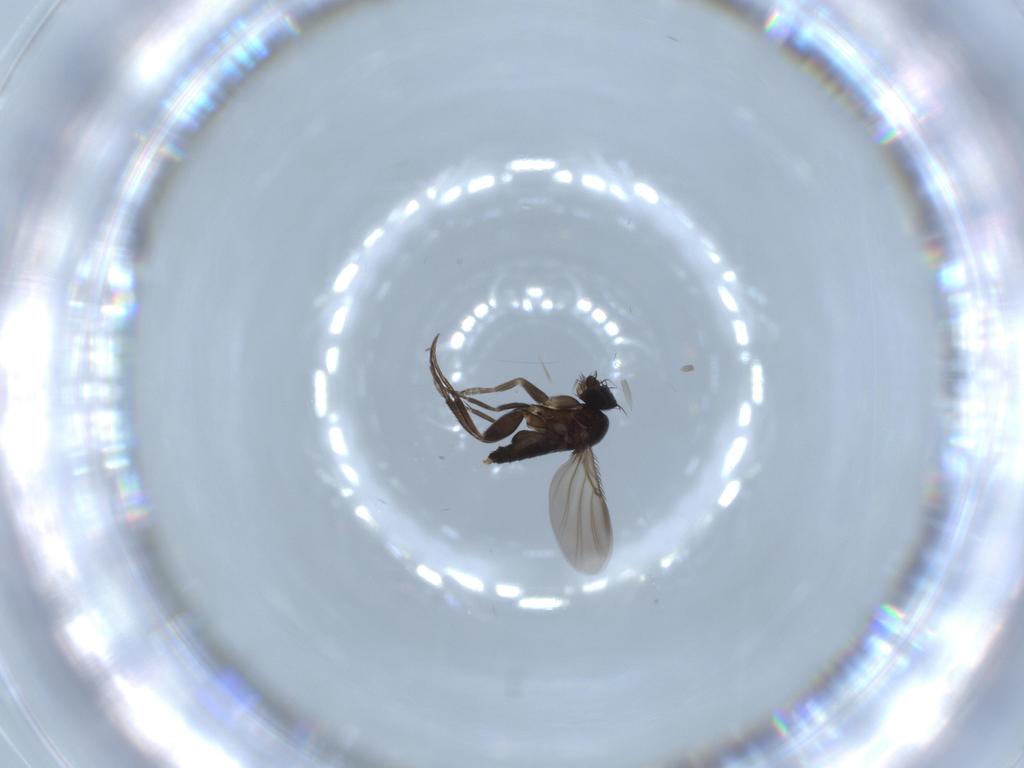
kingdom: Animalia
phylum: Arthropoda
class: Insecta
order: Diptera
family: Phoridae
